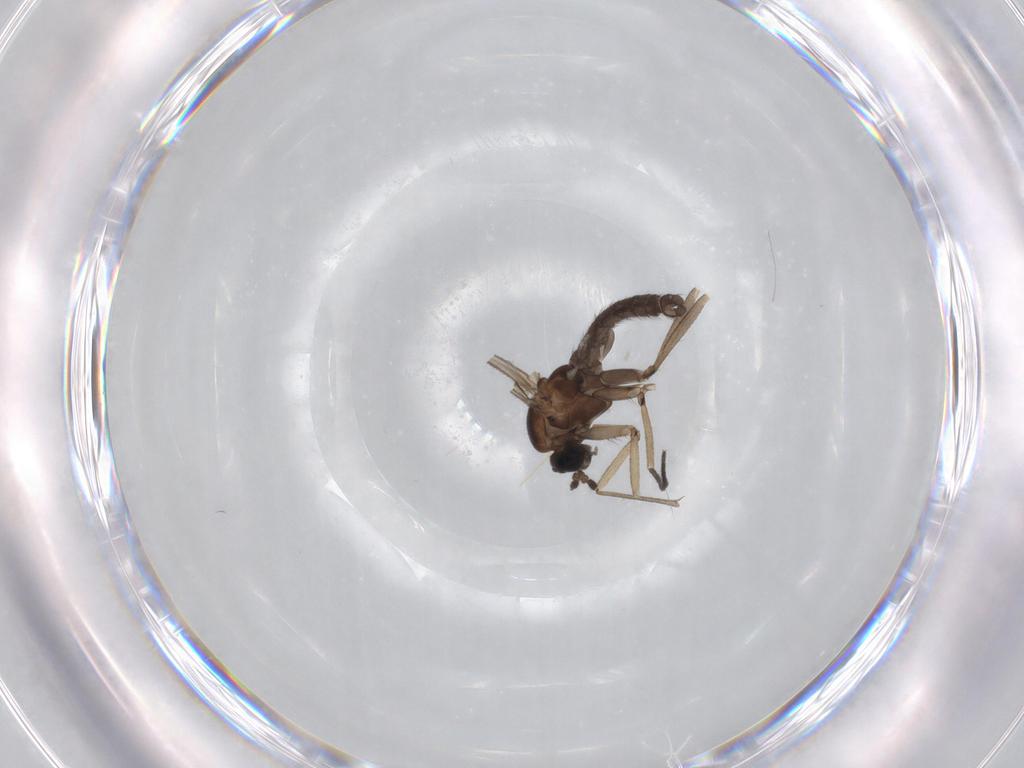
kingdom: Animalia
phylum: Arthropoda
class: Insecta
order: Diptera
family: Sciaridae
